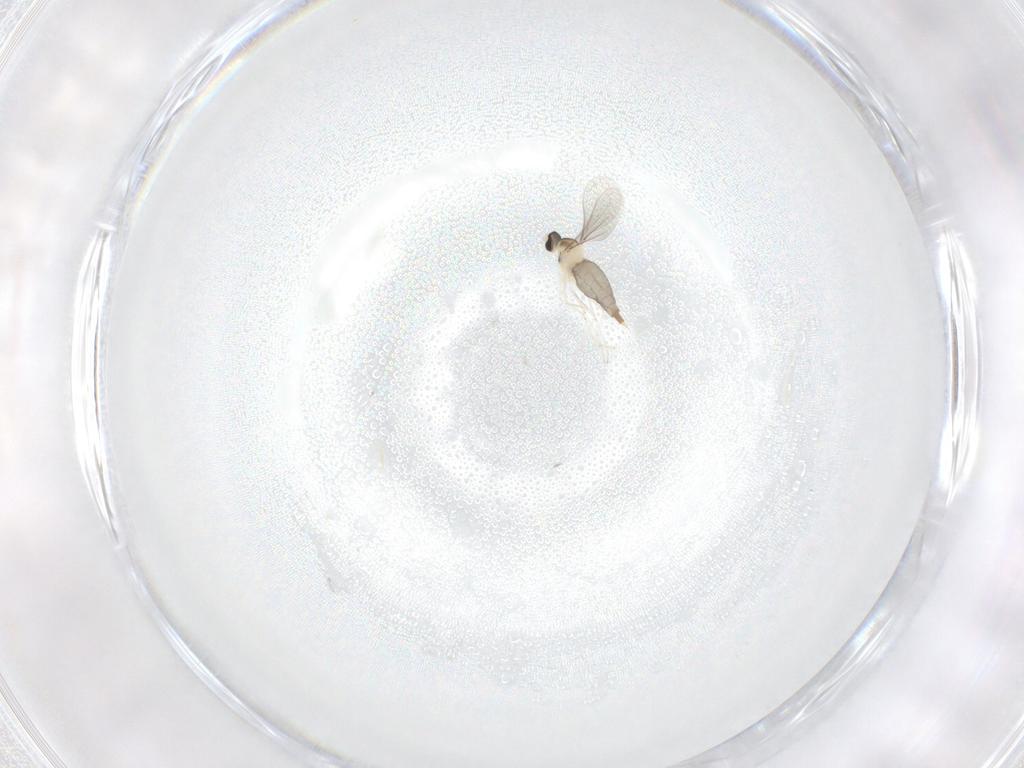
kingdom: Animalia
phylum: Arthropoda
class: Insecta
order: Diptera
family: Cecidomyiidae
